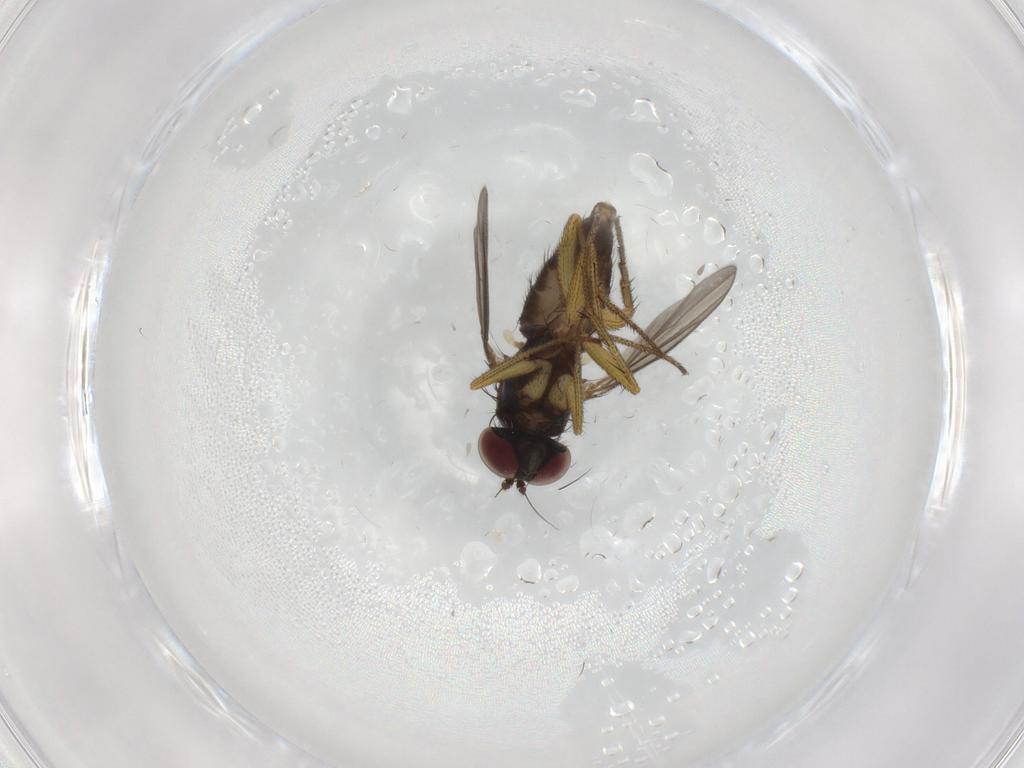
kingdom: Animalia
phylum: Arthropoda
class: Insecta
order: Diptera
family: Dolichopodidae
